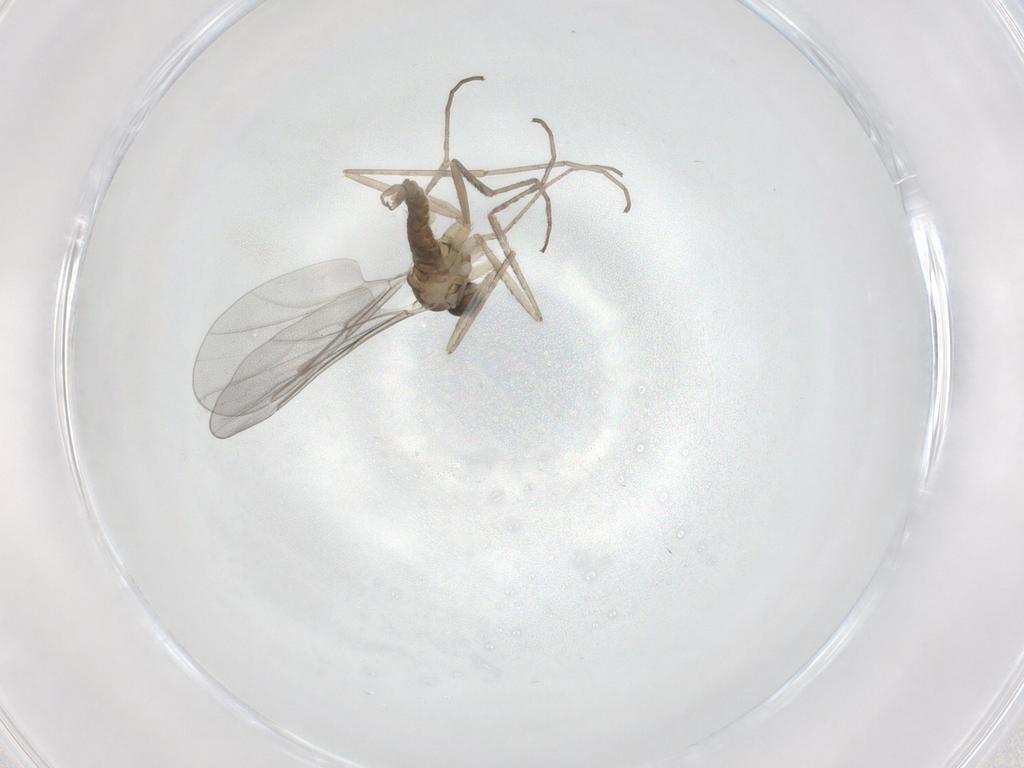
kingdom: Animalia
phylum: Arthropoda
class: Insecta
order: Diptera
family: Cecidomyiidae
